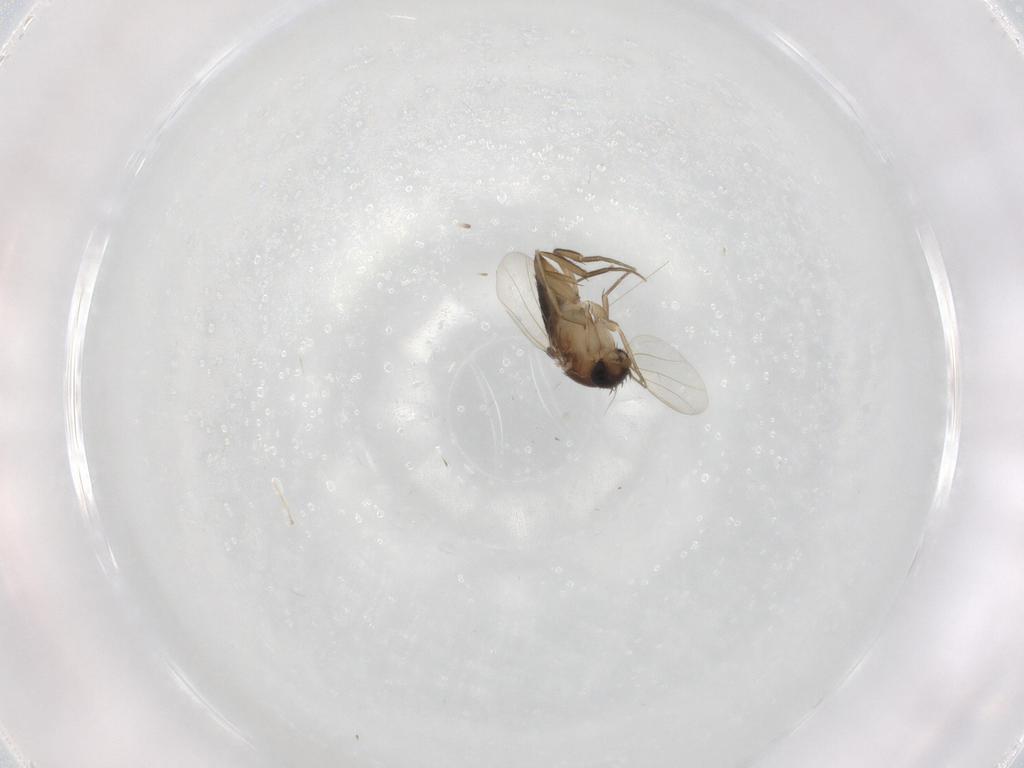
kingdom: Animalia
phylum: Arthropoda
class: Insecta
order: Diptera
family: Phoridae
